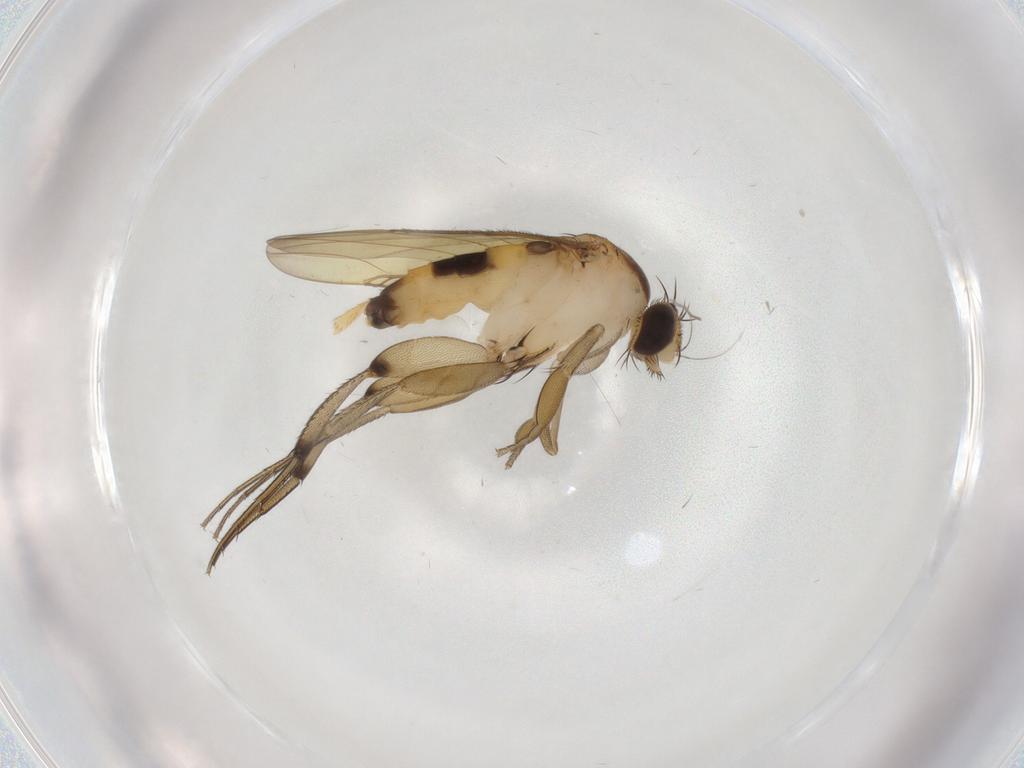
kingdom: Animalia
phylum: Arthropoda
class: Insecta
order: Diptera
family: Phoridae
